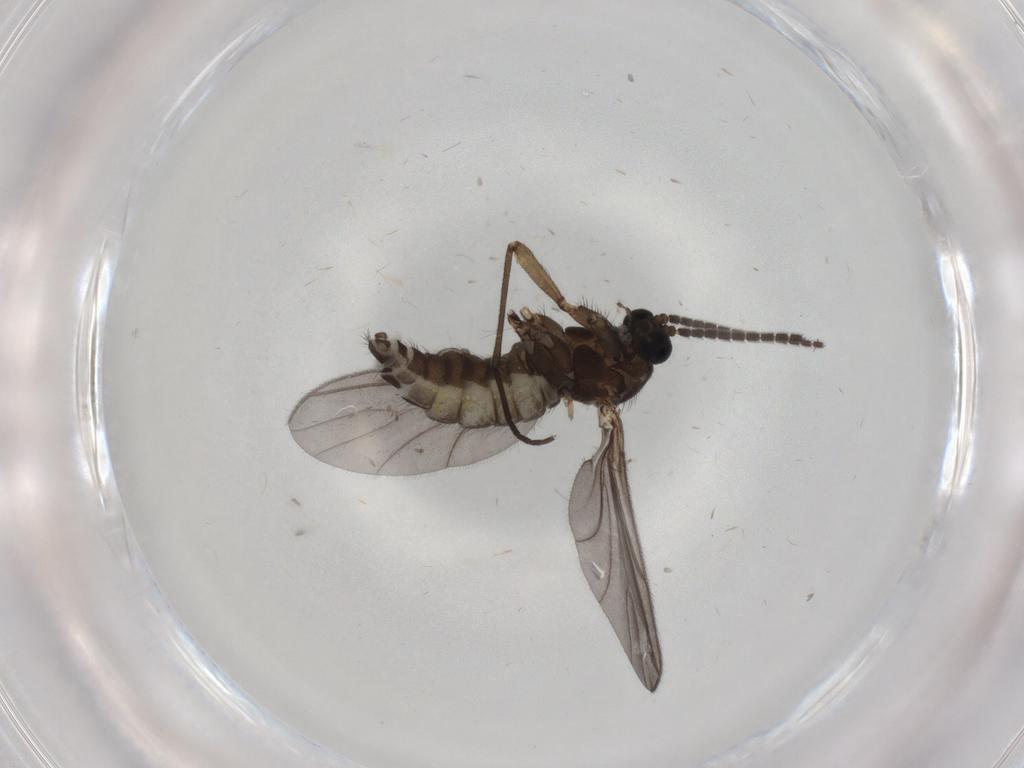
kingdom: Animalia
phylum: Arthropoda
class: Insecta
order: Diptera
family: Sciaridae
